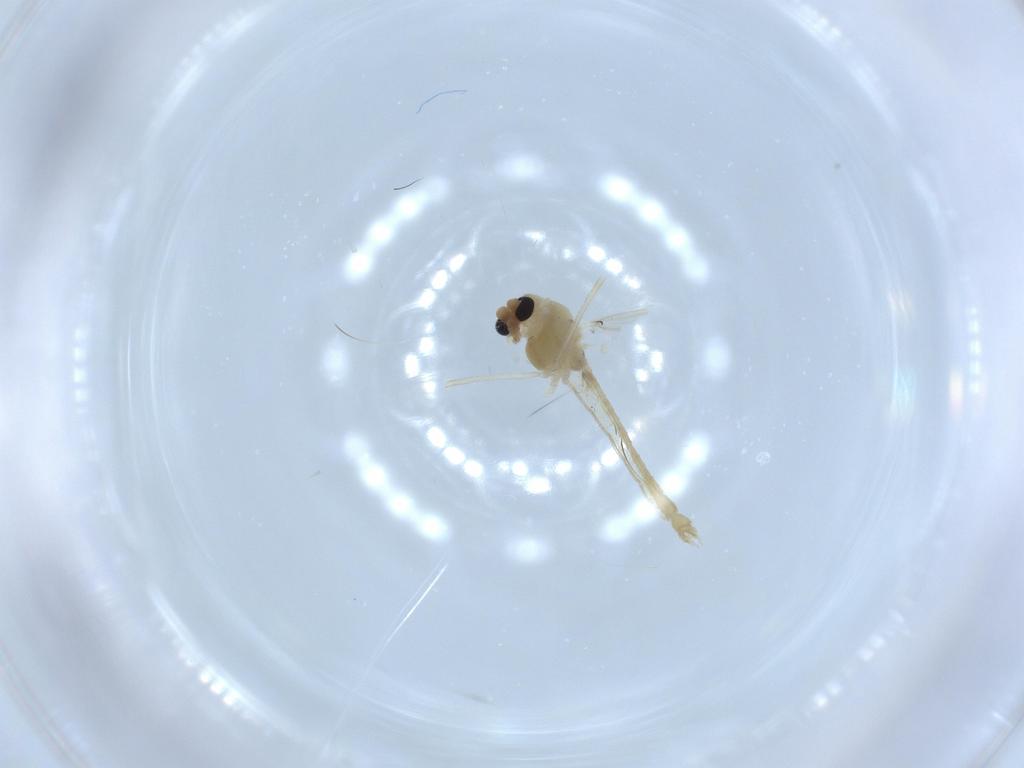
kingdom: Animalia
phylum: Arthropoda
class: Insecta
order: Diptera
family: Chironomidae
